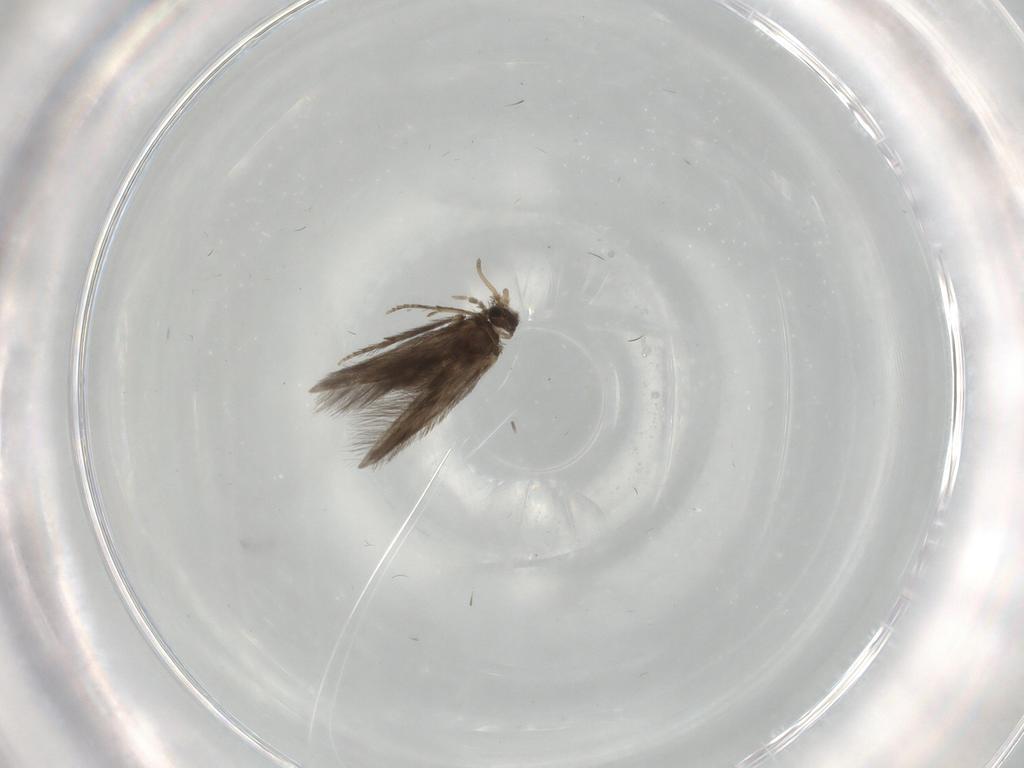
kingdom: Animalia
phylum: Arthropoda
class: Insecta
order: Trichoptera
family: Hydroptilidae
